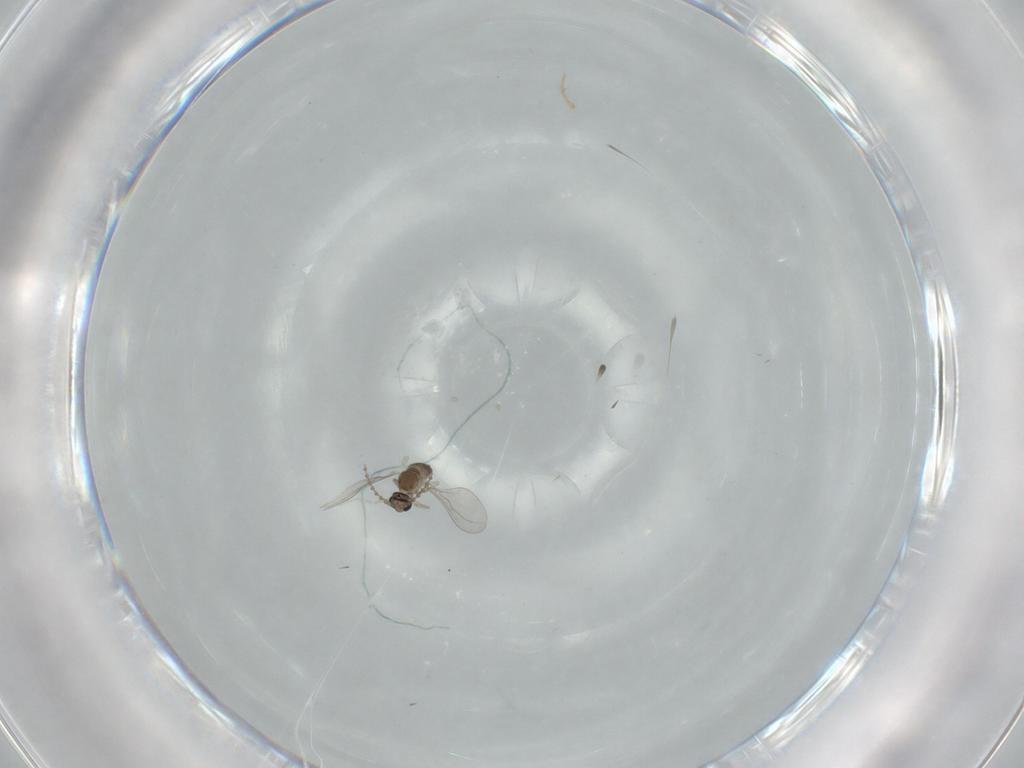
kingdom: Animalia
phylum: Arthropoda
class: Insecta
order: Diptera
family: Cecidomyiidae
